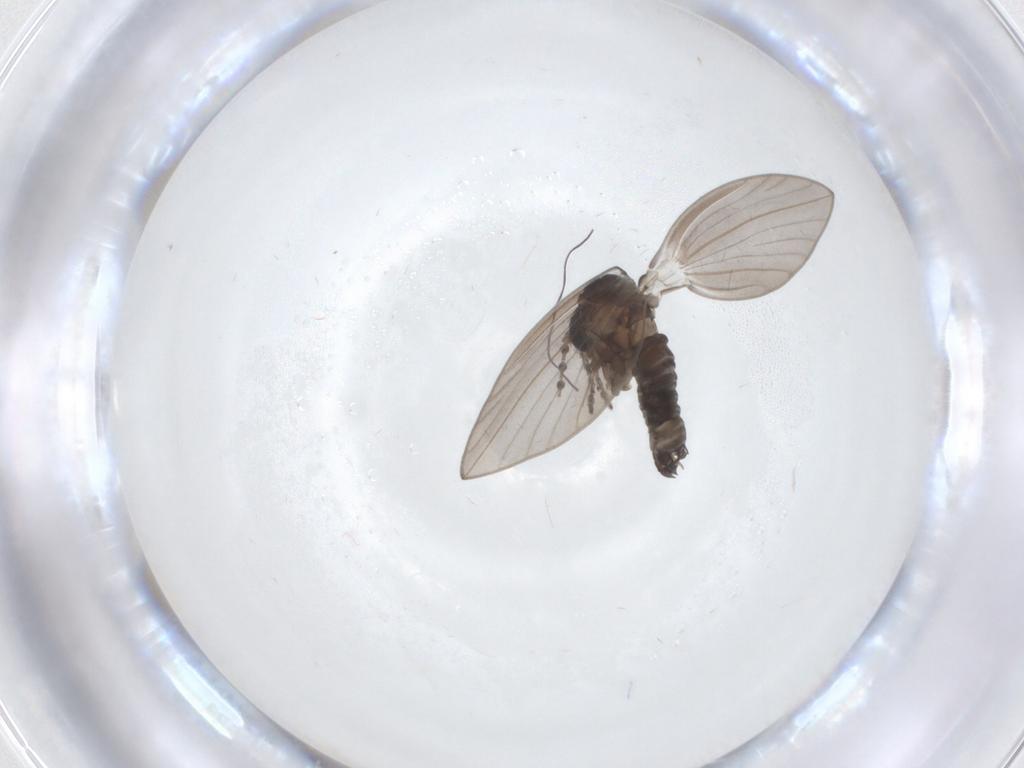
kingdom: Animalia
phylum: Arthropoda
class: Insecta
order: Diptera
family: Psychodidae
